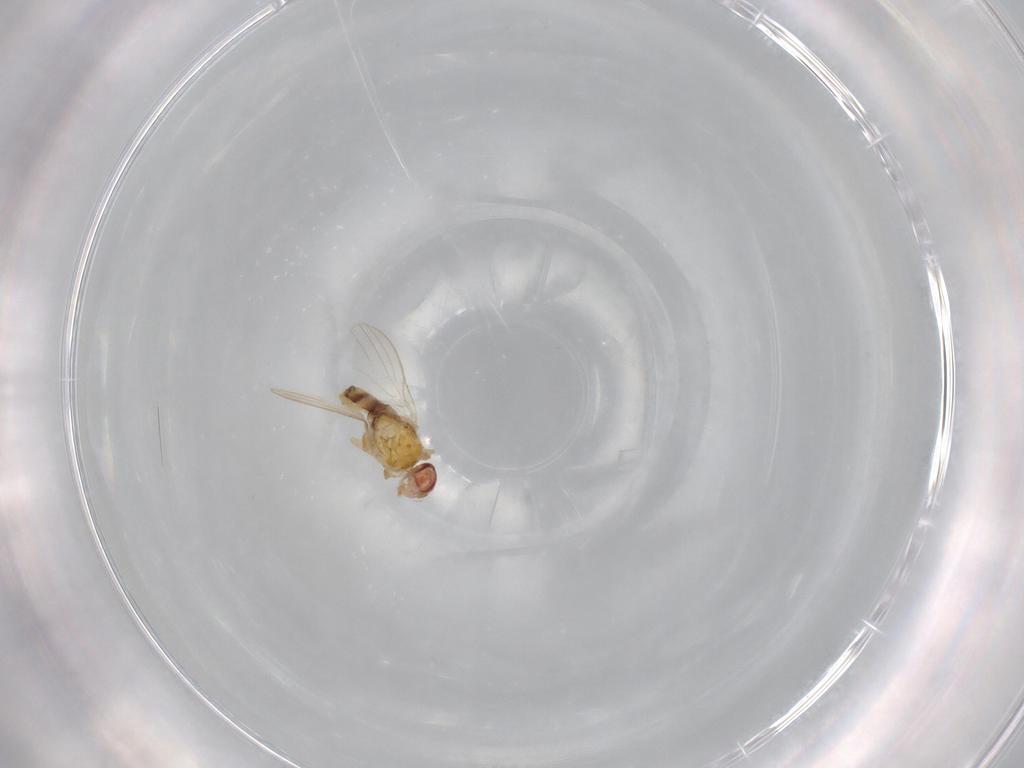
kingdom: Animalia
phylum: Arthropoda
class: Insecta
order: Diptera
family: Chyromyidae
